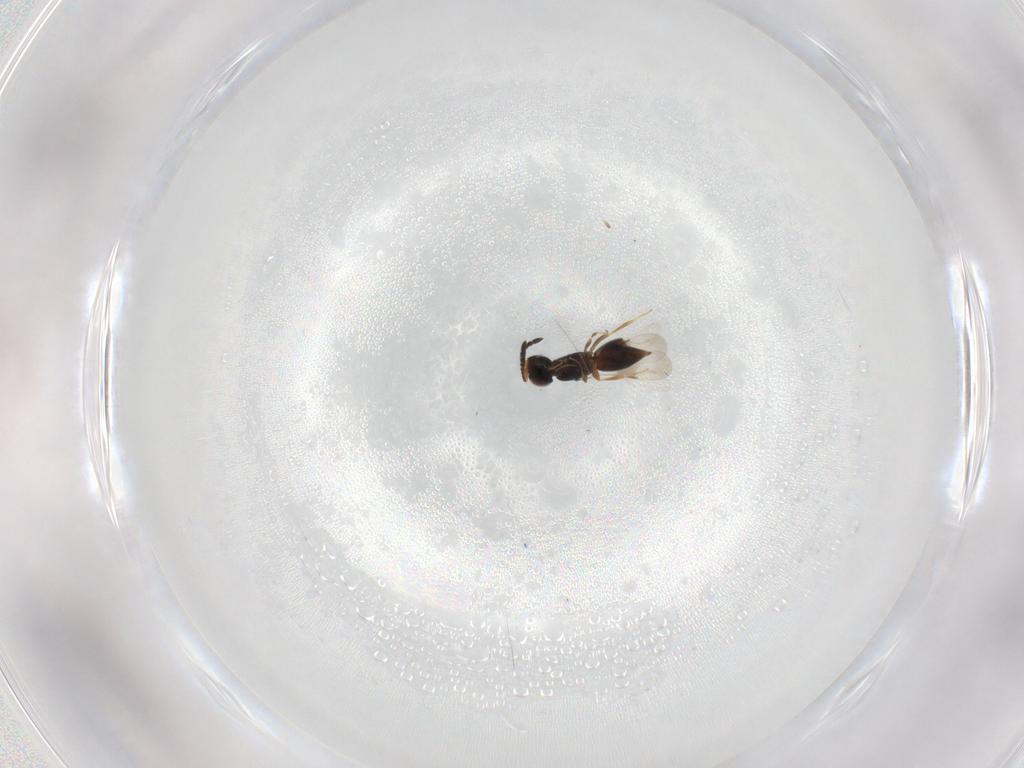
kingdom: Animalia
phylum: Arthropoda
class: Insecta
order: Hymenoptera
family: Ceraphronidae
